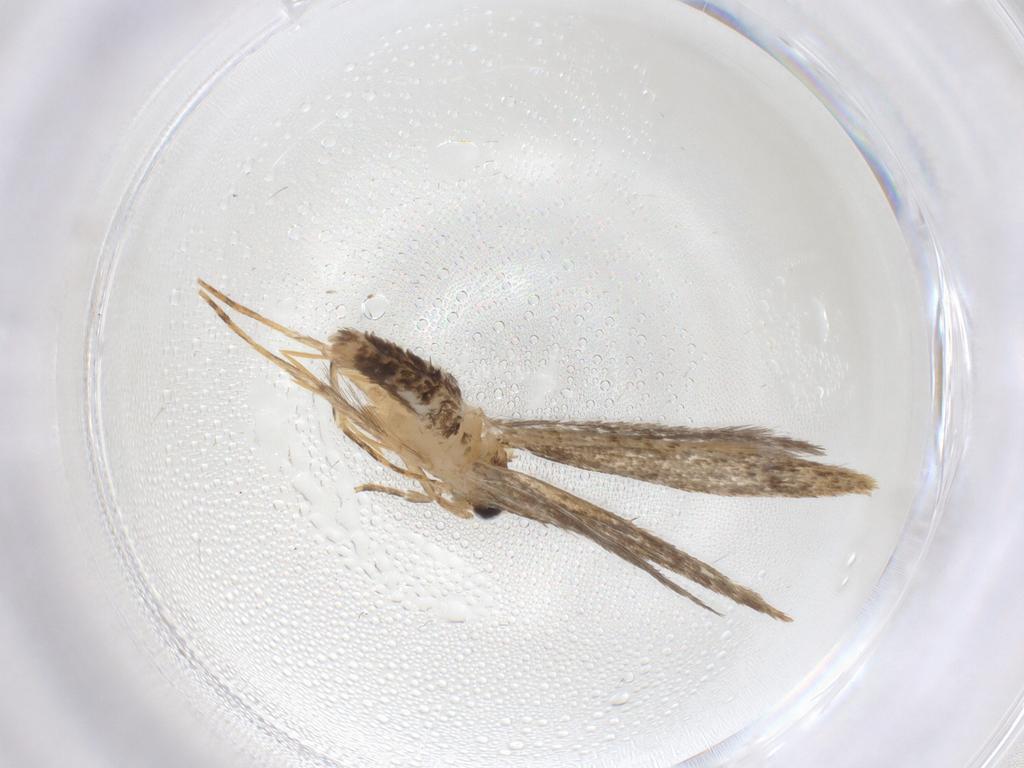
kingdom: Animalia
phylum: Arthropoda
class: Insecta
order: Lepidoptera
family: Tineidae
